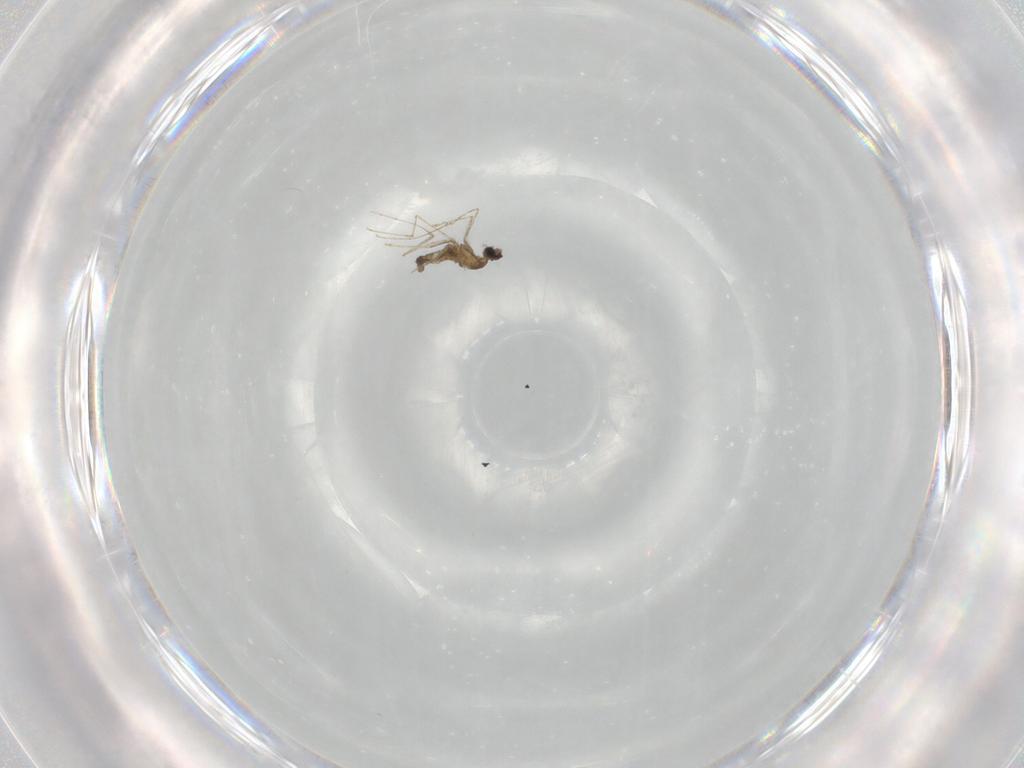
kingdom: Animalia
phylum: Arthropoda
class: Insecta
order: Diptera
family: Cecidomyiidae
